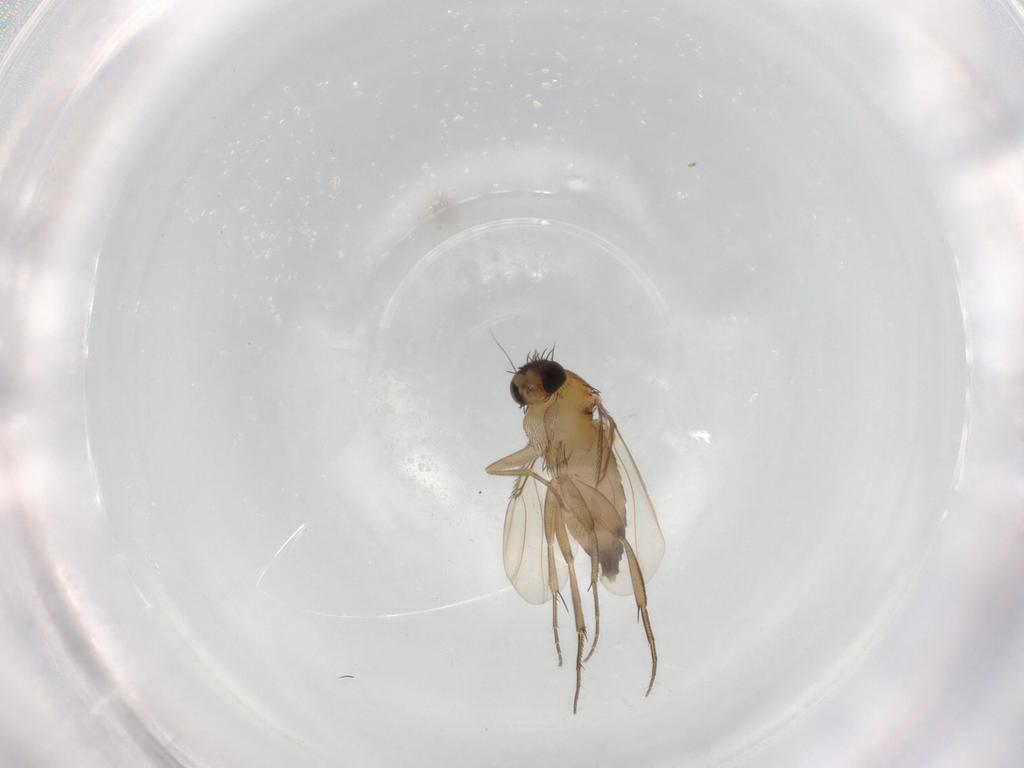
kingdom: Animalia
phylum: Arthropoda
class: Insecta
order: Diptera
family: Phoridae
